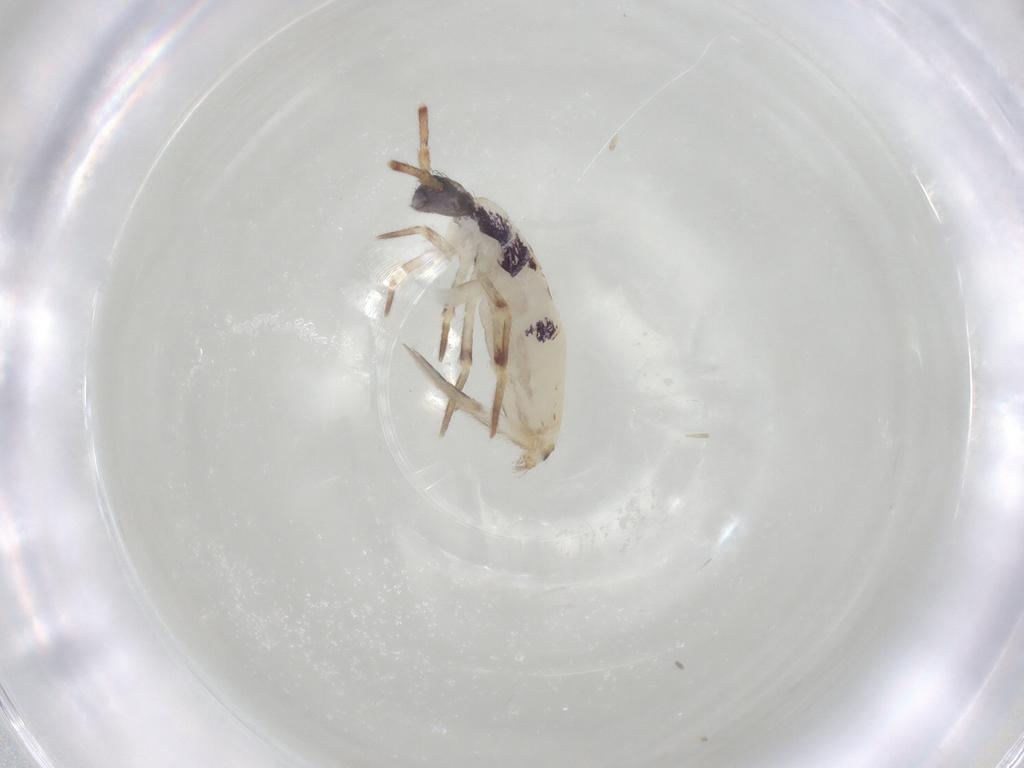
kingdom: Animalia
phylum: Arthropoda
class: Collembola
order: Entomobryomorpha
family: Entomobryidae
